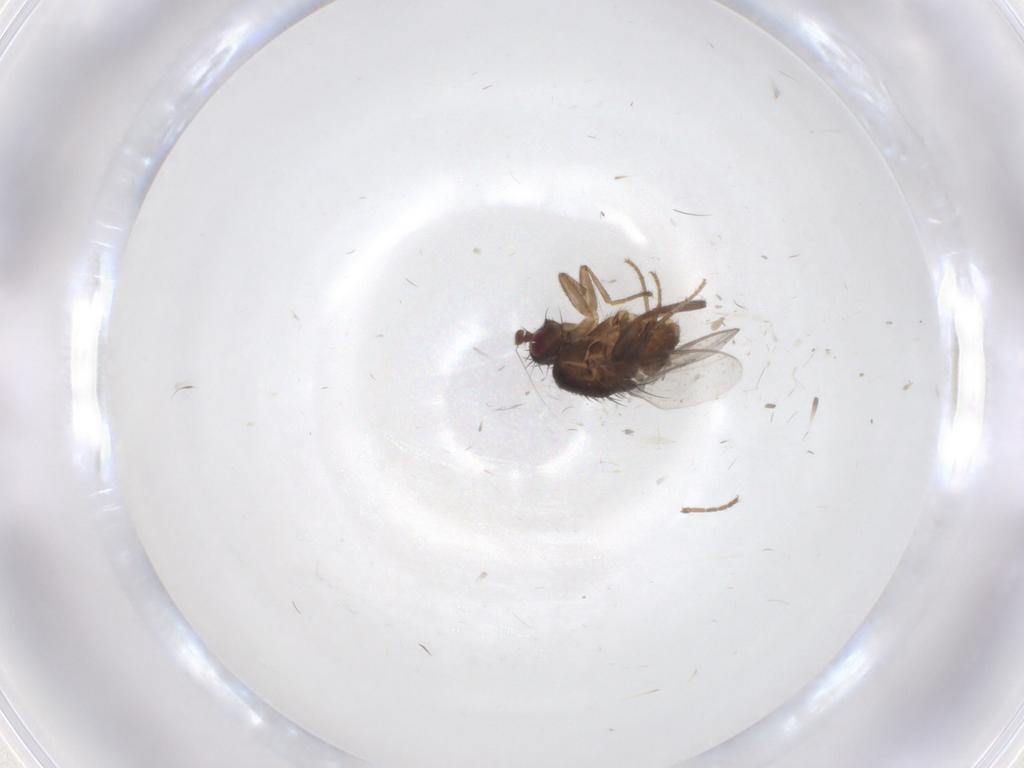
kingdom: Animalia
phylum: Arthropoda
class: Insecta
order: Diptera
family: Sphaeroceridae
